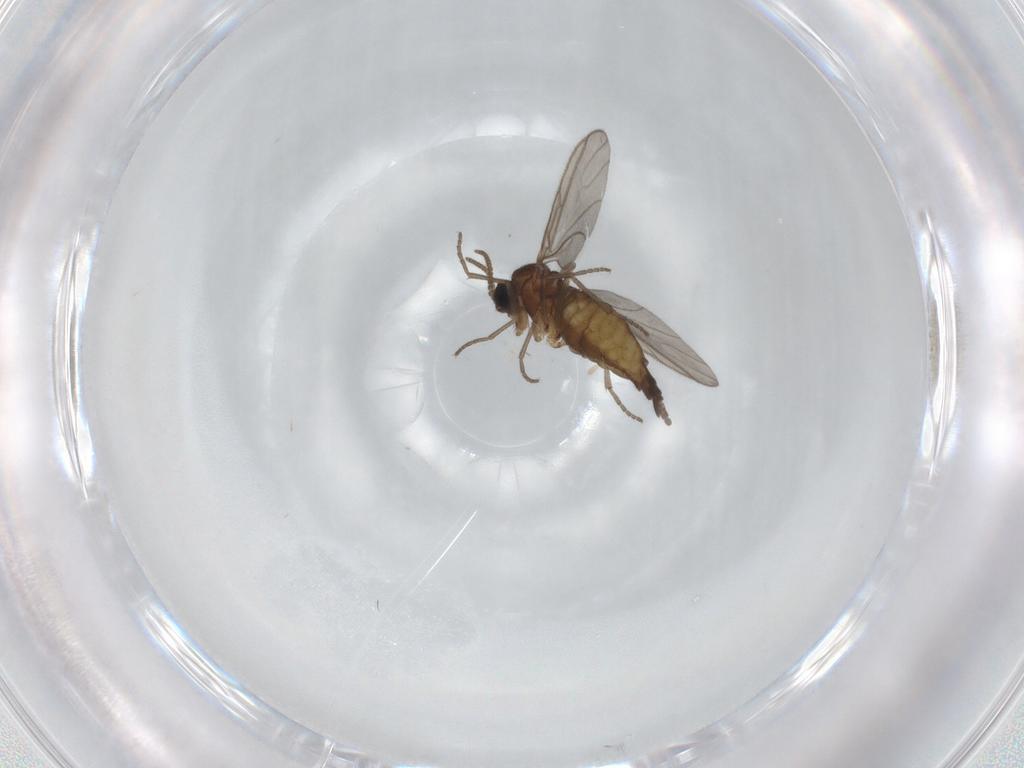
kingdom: Animalia
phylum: Arthropoda
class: Insecta
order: Diptera
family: Sciaridae
